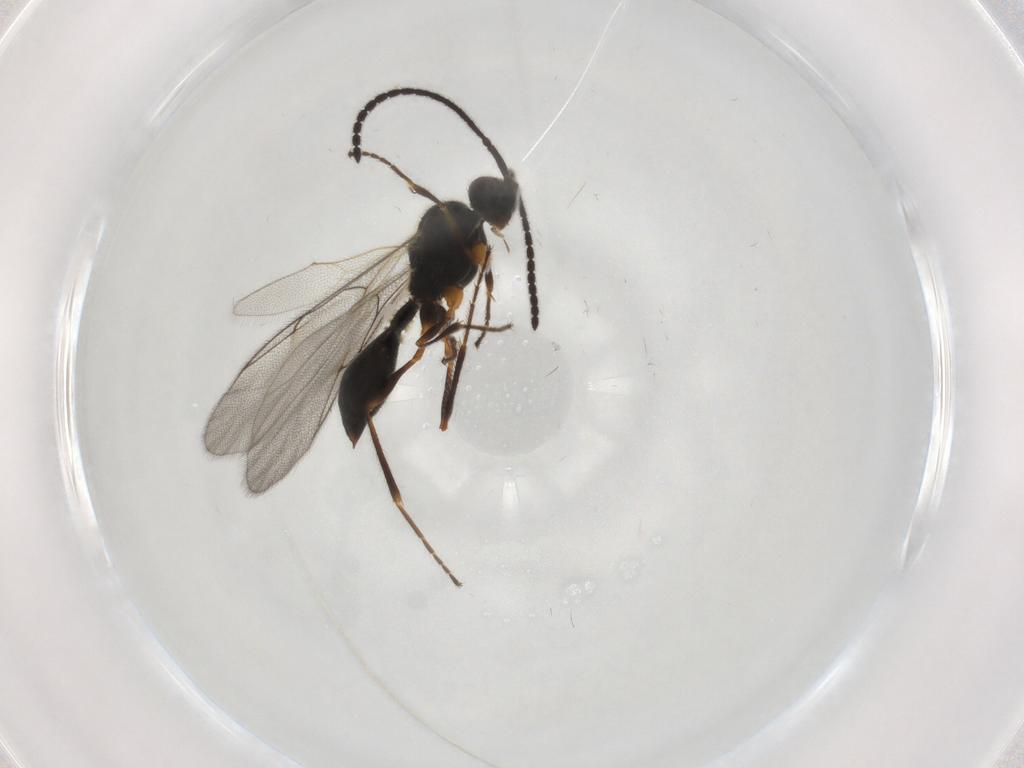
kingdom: Animalia
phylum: Arthropoda
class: Insecta
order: Hymenoptera
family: Diapriidae
